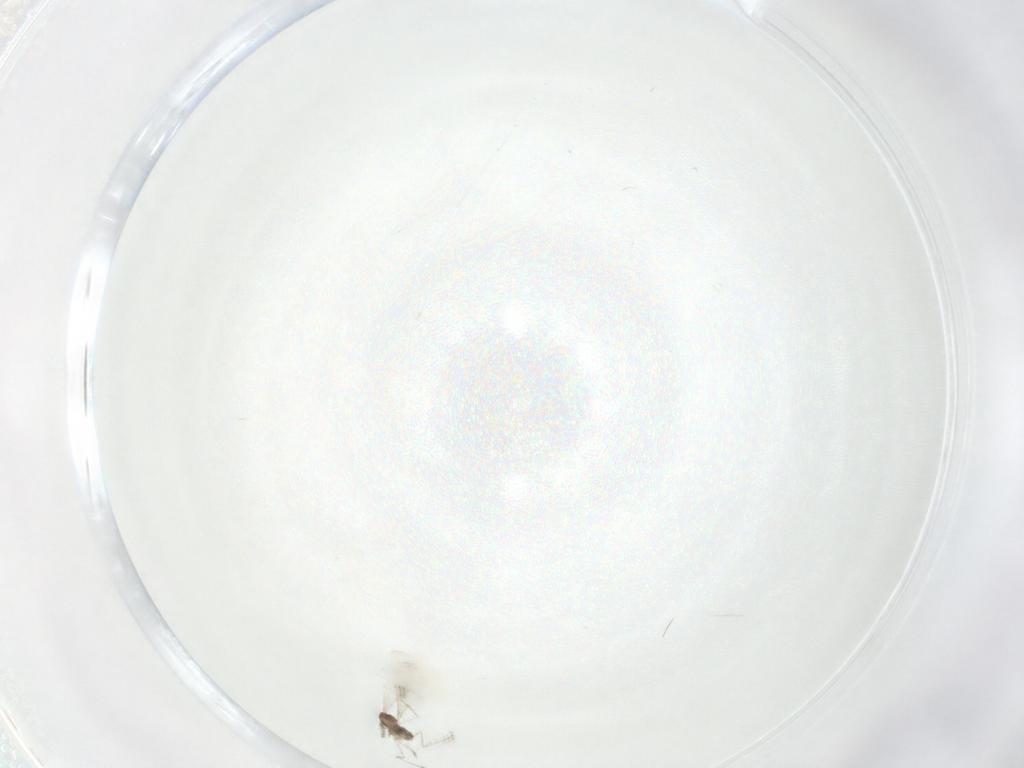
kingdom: Animalia
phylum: Arthropoda
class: Insecta
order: Diptera
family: Cecidomyiidae
